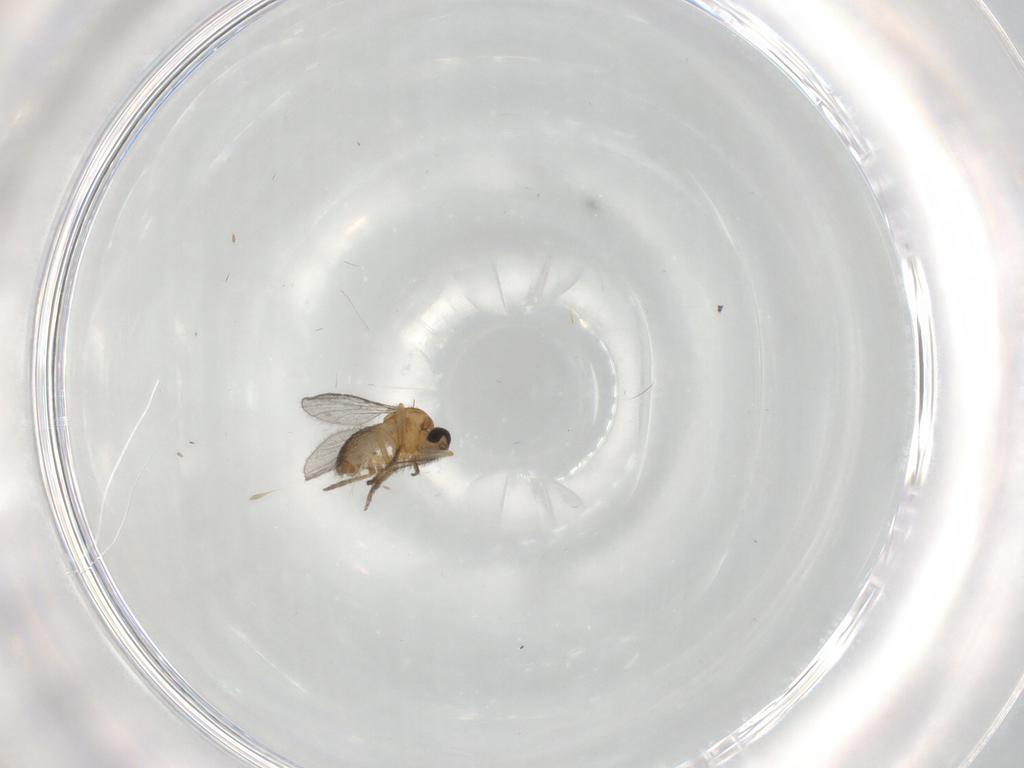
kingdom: Animalia
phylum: Arthropoda
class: Insecta
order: Diptera
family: Ceratopogonidae
